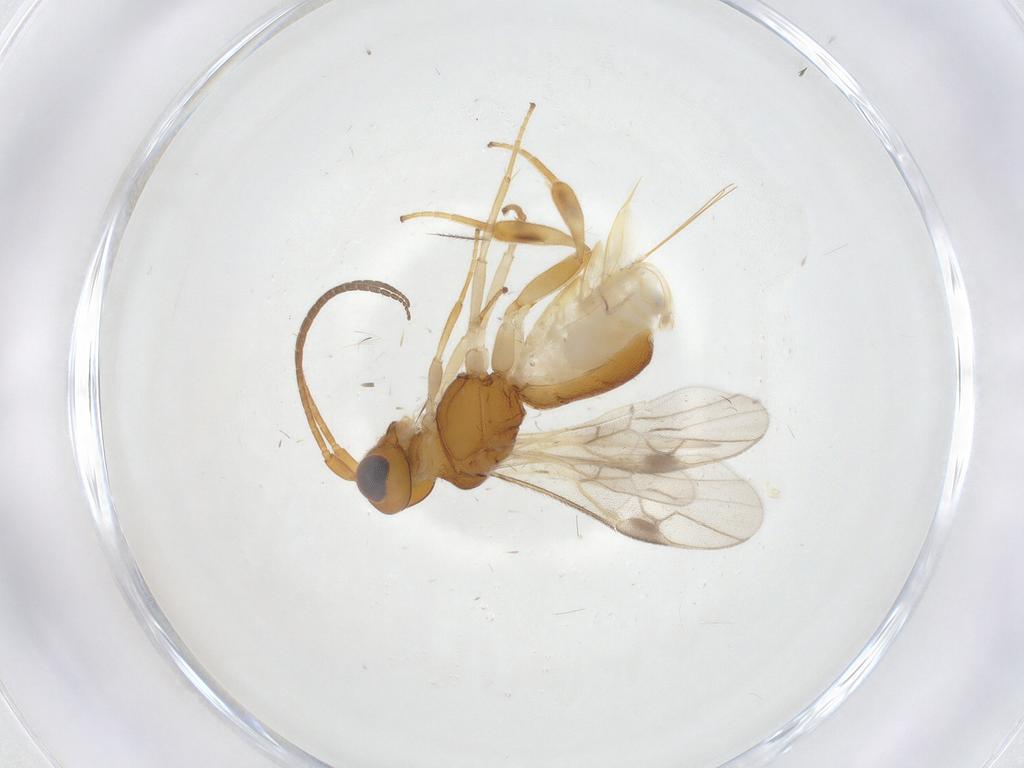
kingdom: Animalia
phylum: Arthropoda
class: Insecta
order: Hymenoptera
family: Braconidae
